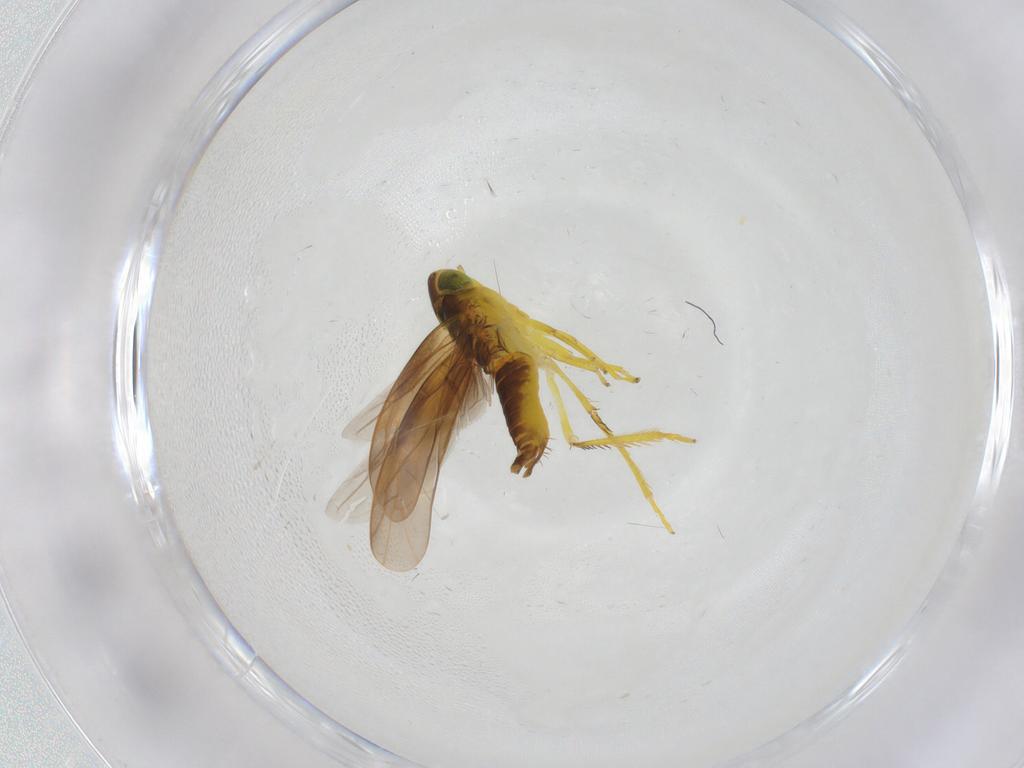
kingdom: Animalia
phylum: Arthropoda
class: Insecta
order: Hemiptera
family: Cicadellidae
